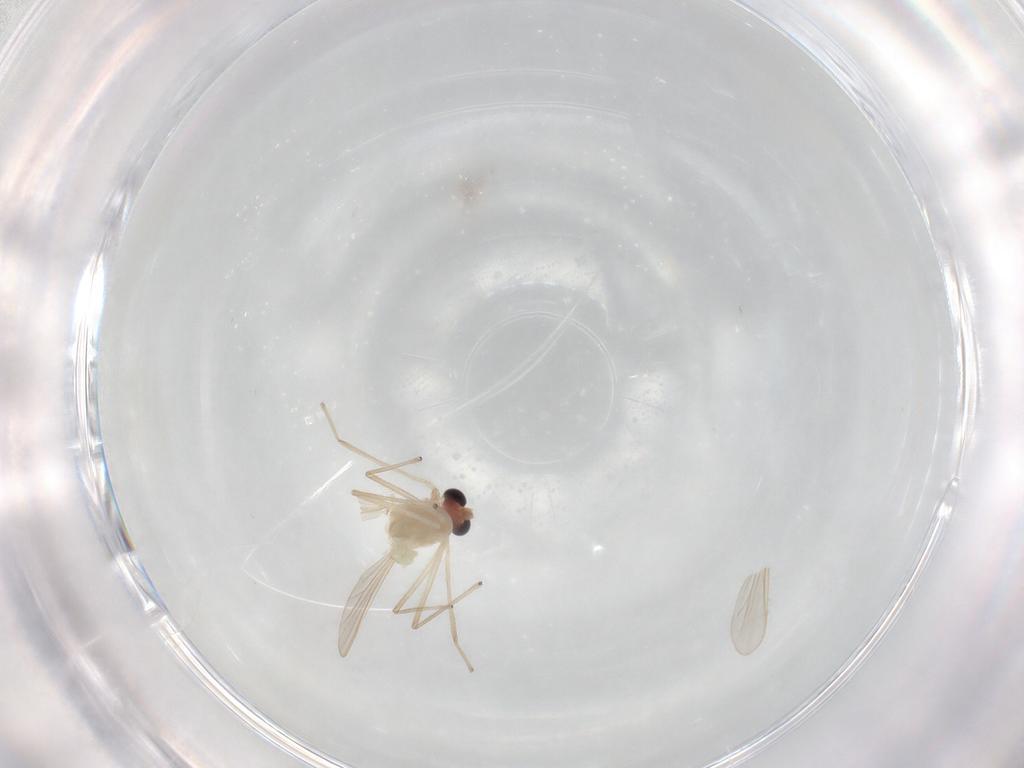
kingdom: Animalia
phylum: Arthropoda
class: Insecta
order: Diptera
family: Chironomidae
